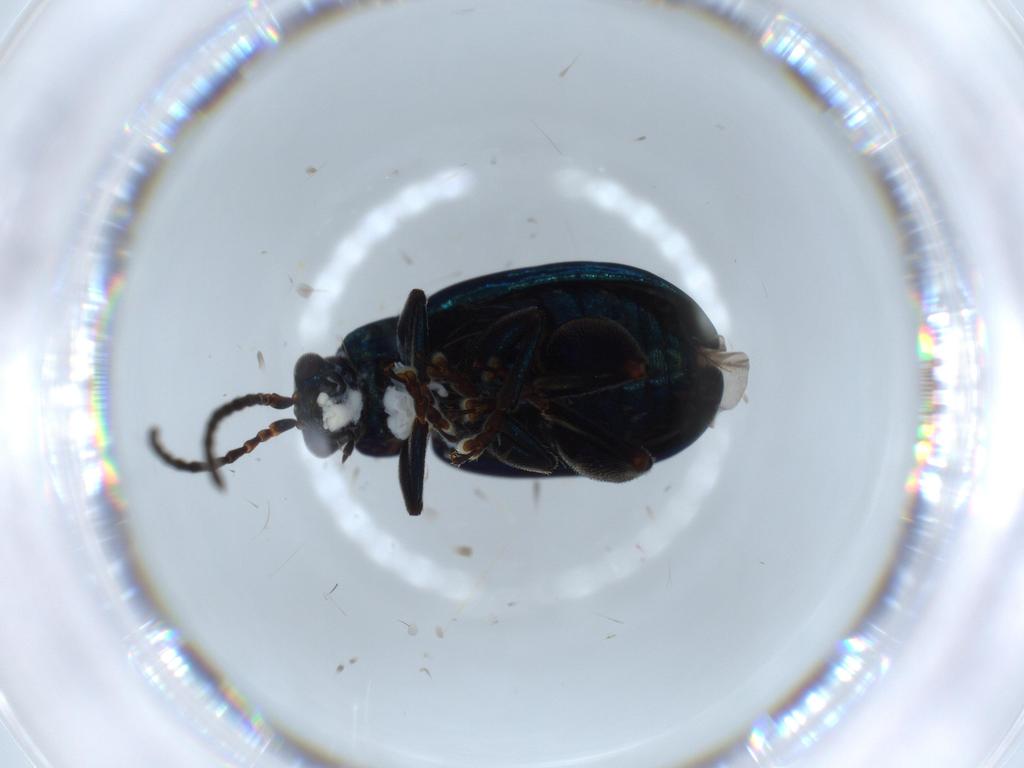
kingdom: Animalia
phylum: Arthropoda
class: Insecta
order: Coleoptera
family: Chrysomelidae
